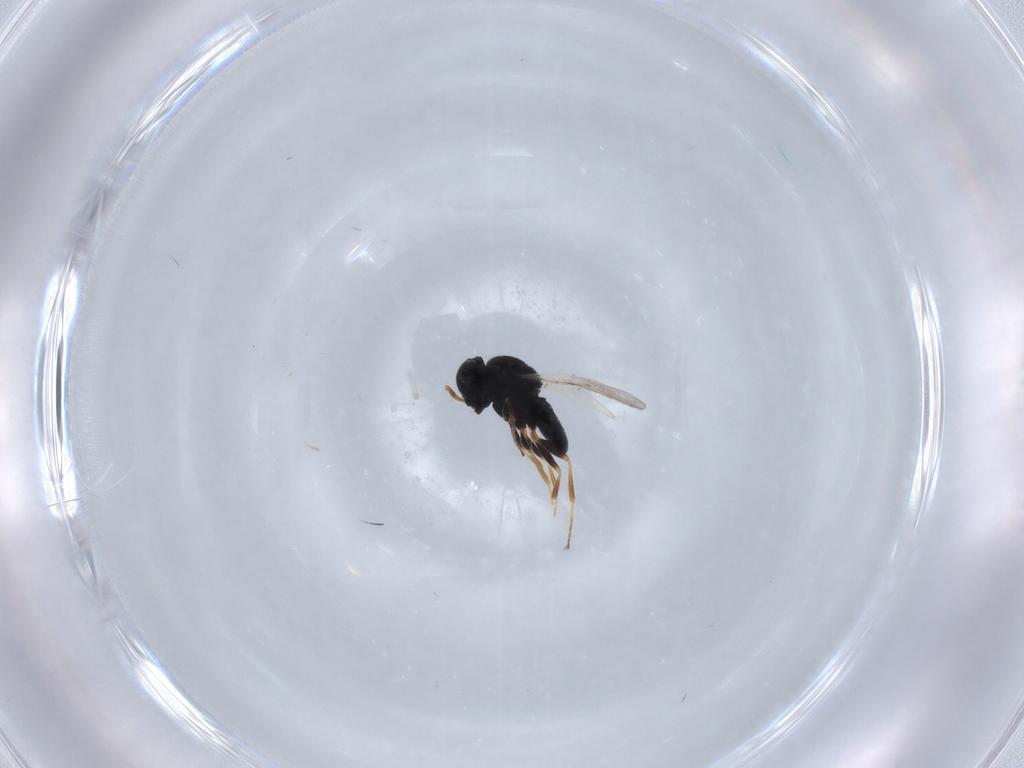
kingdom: Animalia
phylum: Arthropoda
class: Insecta
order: Coleoptera
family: Curculionidae
